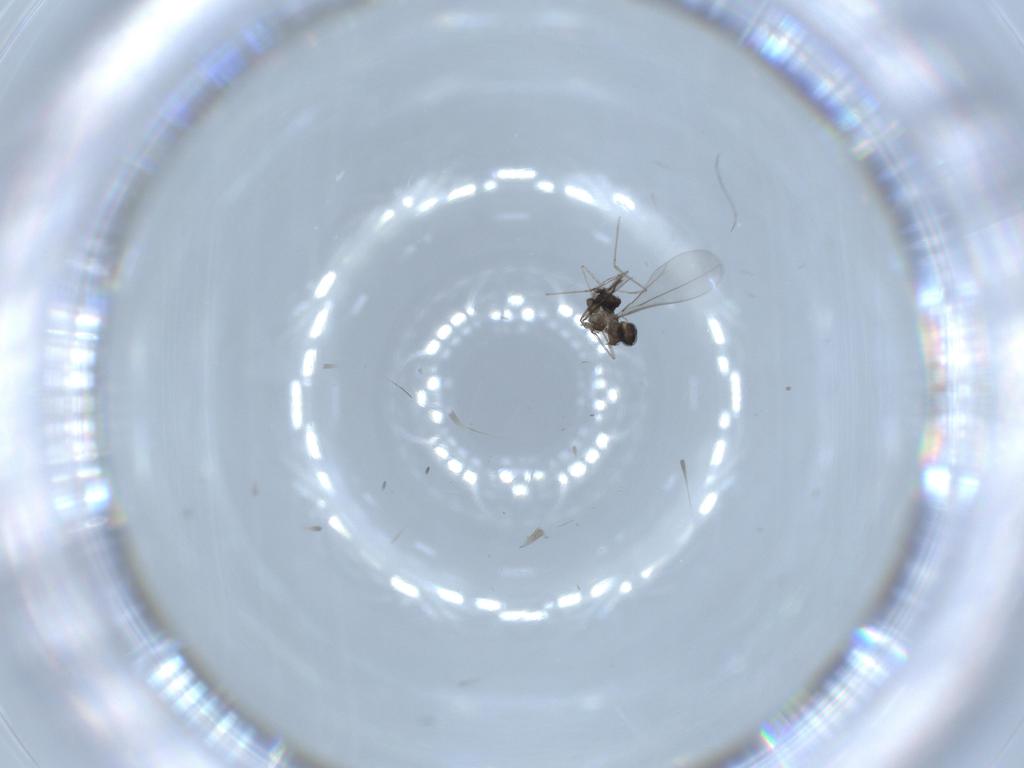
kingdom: Animalia
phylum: Arthropoda
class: Insecta
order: Diptera
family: Cecidomyiidae
